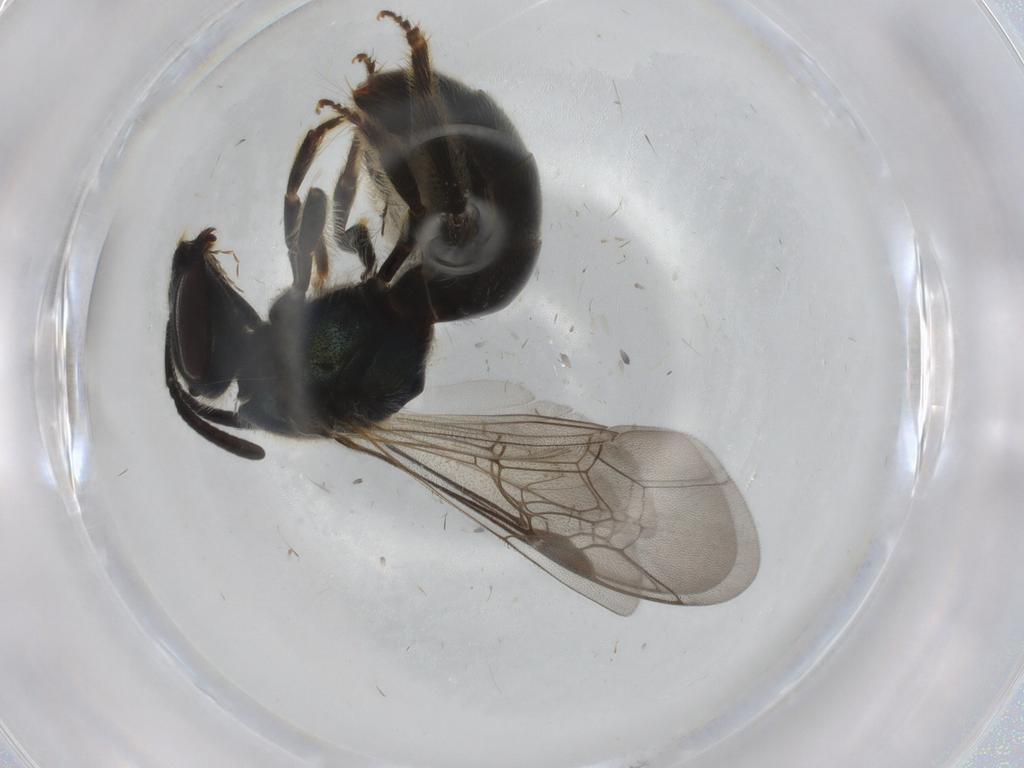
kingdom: Animalia
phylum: Arthropoda
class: Insecta
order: Hymenoptera
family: Halictidae
